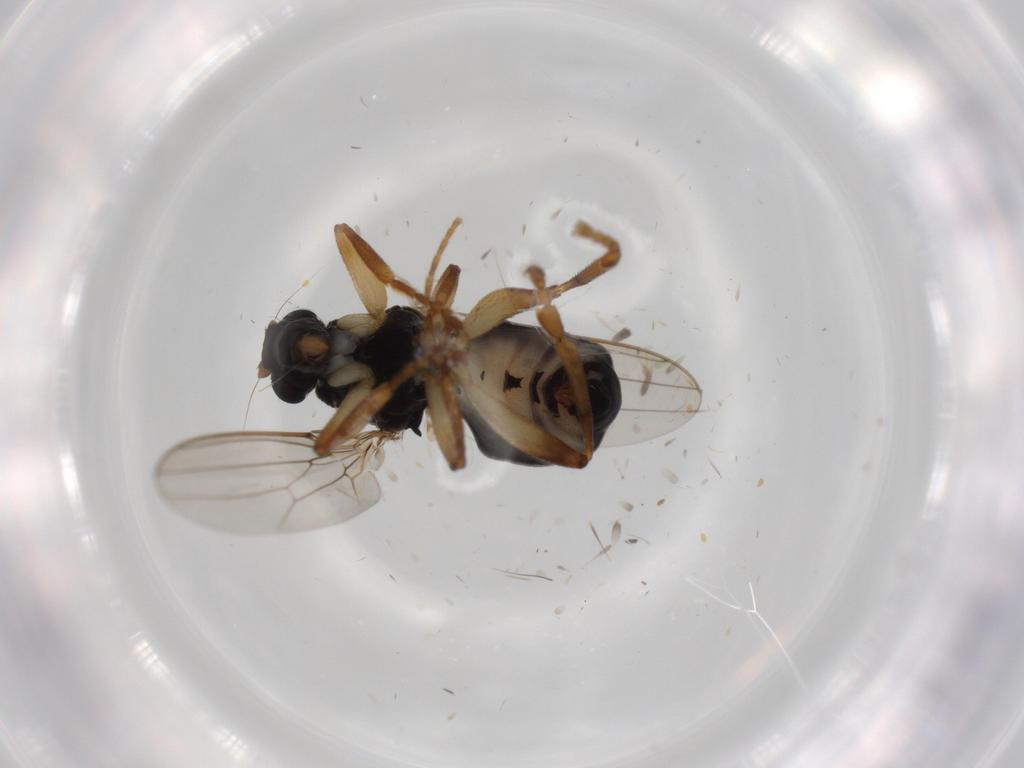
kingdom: Animalia
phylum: Arthropoda
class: Insecta
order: Diptera
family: Sphaeroceridae
